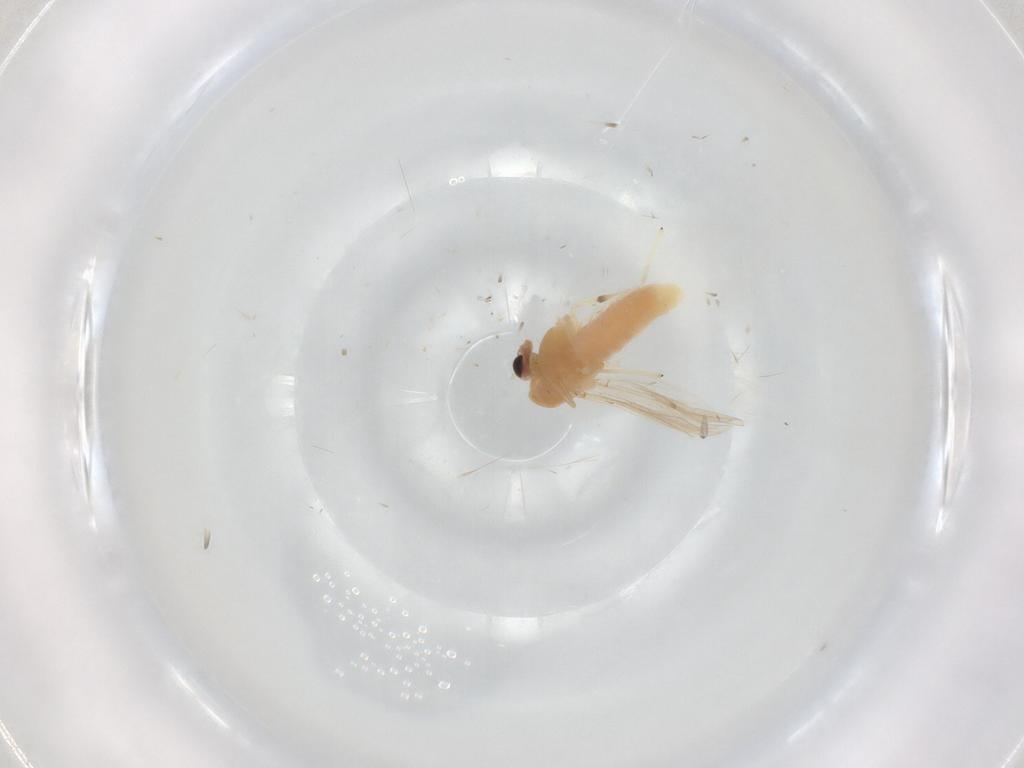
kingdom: Animalia
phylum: Arthropoda
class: Insecta
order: Diptera
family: Chironomidae
